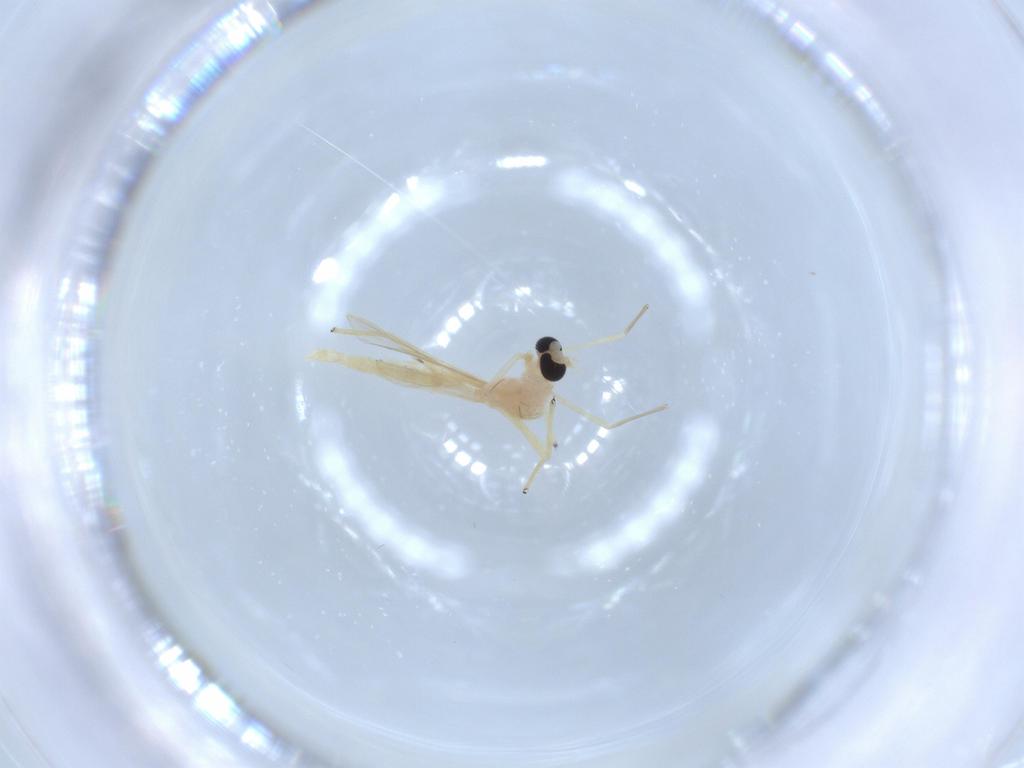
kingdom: Animalia
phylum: Arthropoda
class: Insecta
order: Diptera
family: Chironomidae
